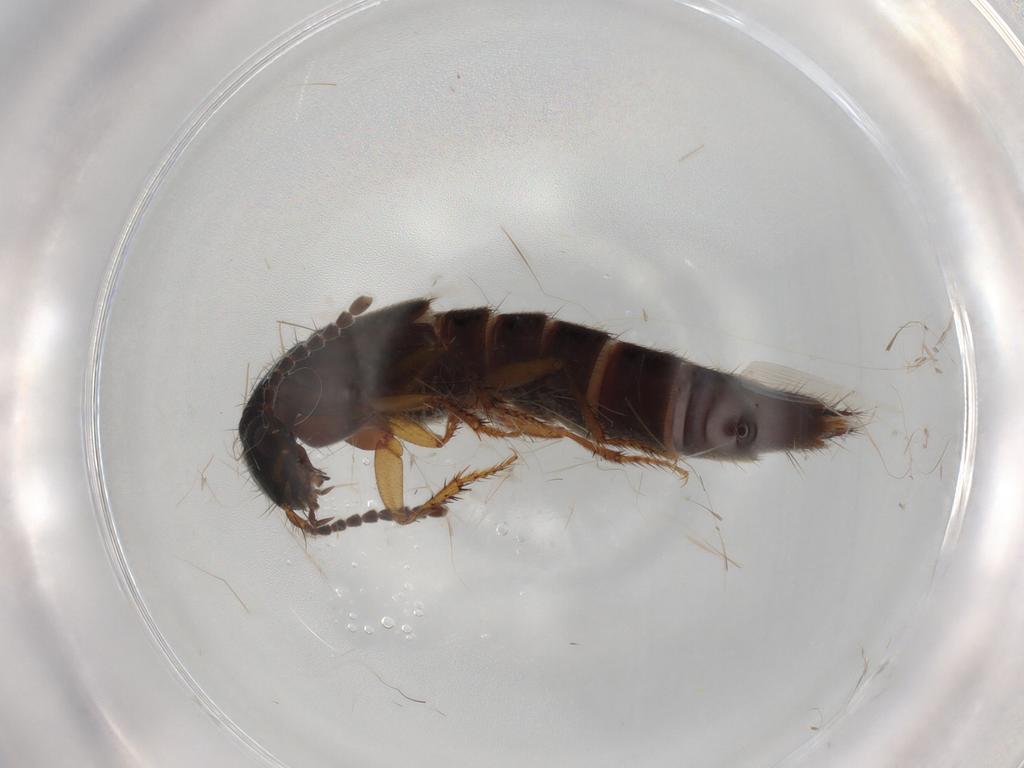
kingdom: Animalia
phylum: Arthropoda
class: Insecta
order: Coleoptera
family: Staphylinidae
